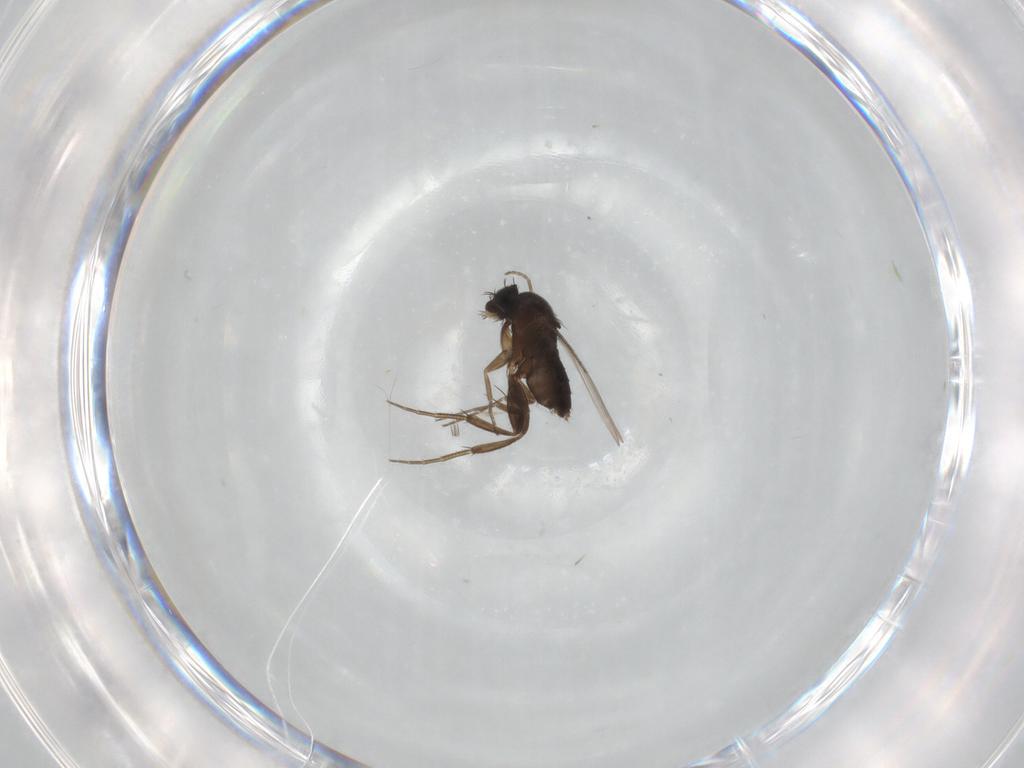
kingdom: Animalia
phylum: Arthropoda
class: Insecta
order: Diptera
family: Phoridae
